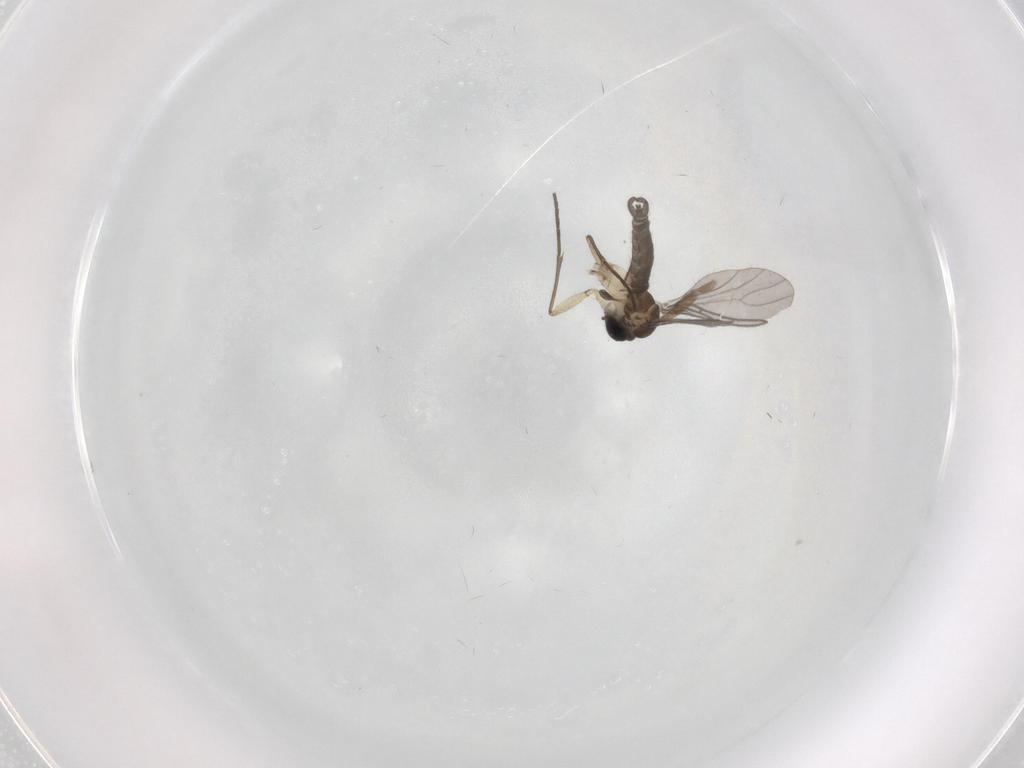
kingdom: Animalia
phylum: Arthropoda
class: Insecta
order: Diptera
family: Sciaridae
